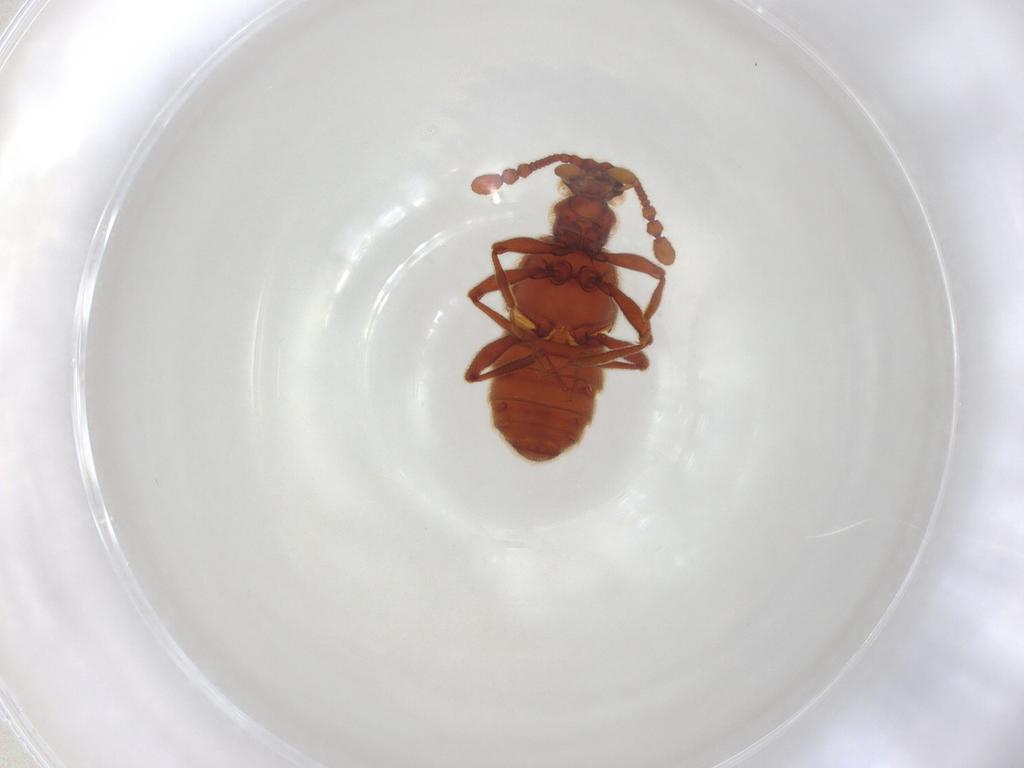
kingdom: Animalia
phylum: Arthropoda
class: Insecta
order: Coleoptera
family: Staphylinidae
